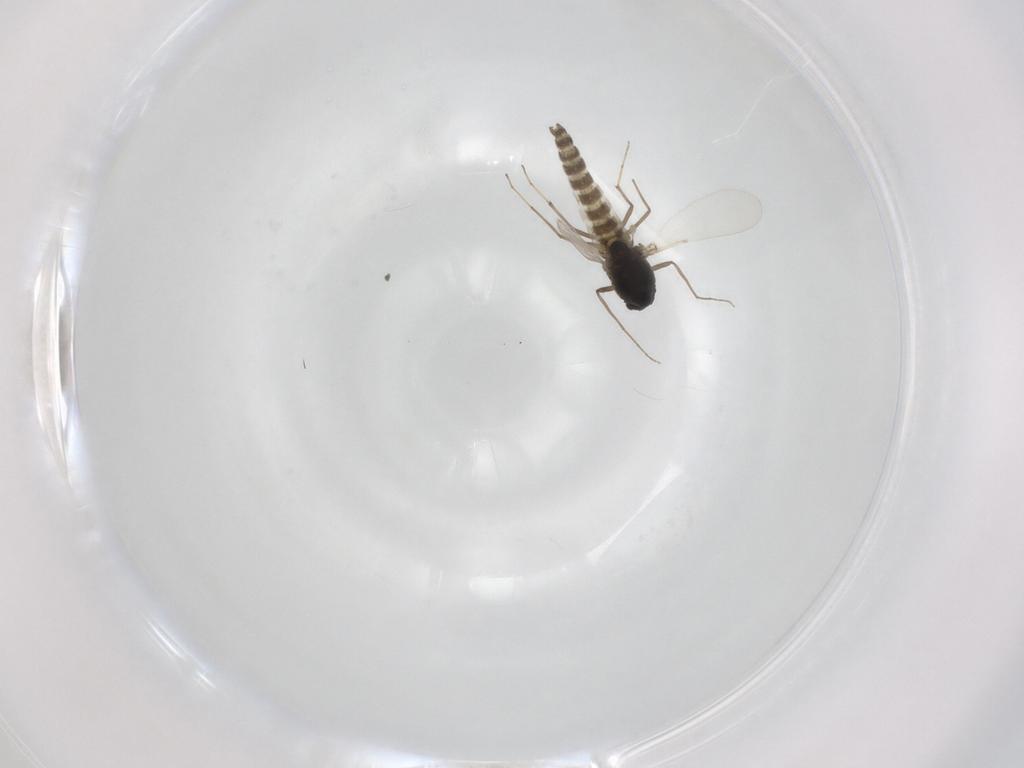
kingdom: Animalia
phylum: Arthropoda
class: Insecta
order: Diptera
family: Chironomidae
